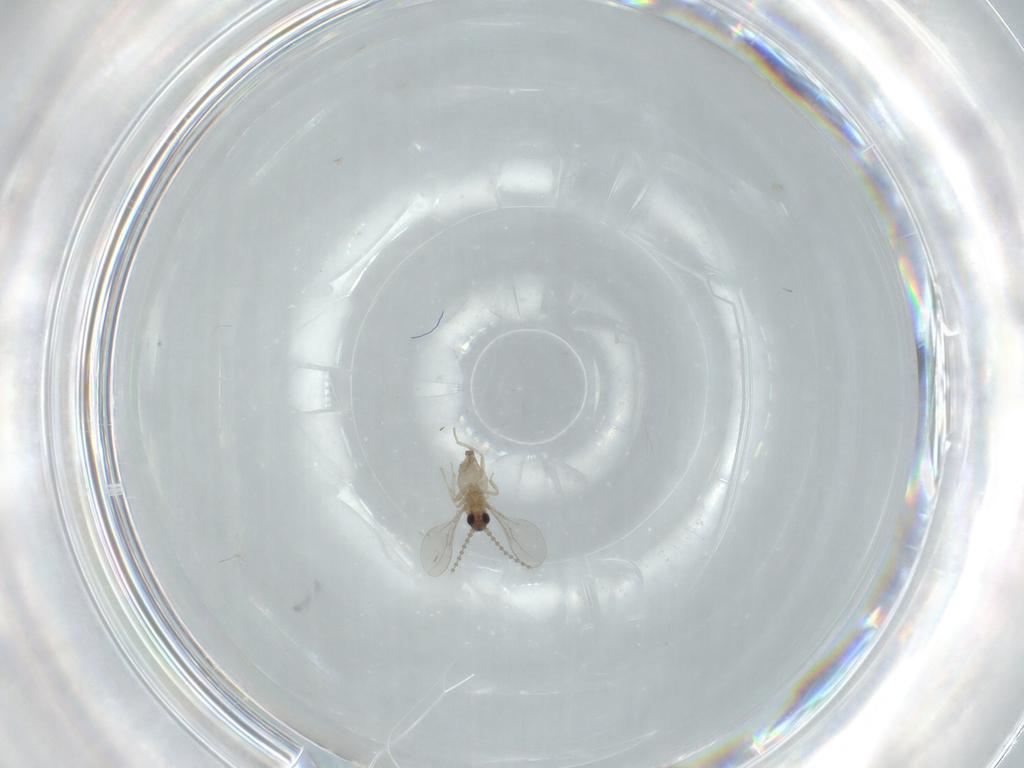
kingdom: Animalia
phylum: Arthropoda
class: Insecta
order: Diptera
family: Cecidomyiidae
